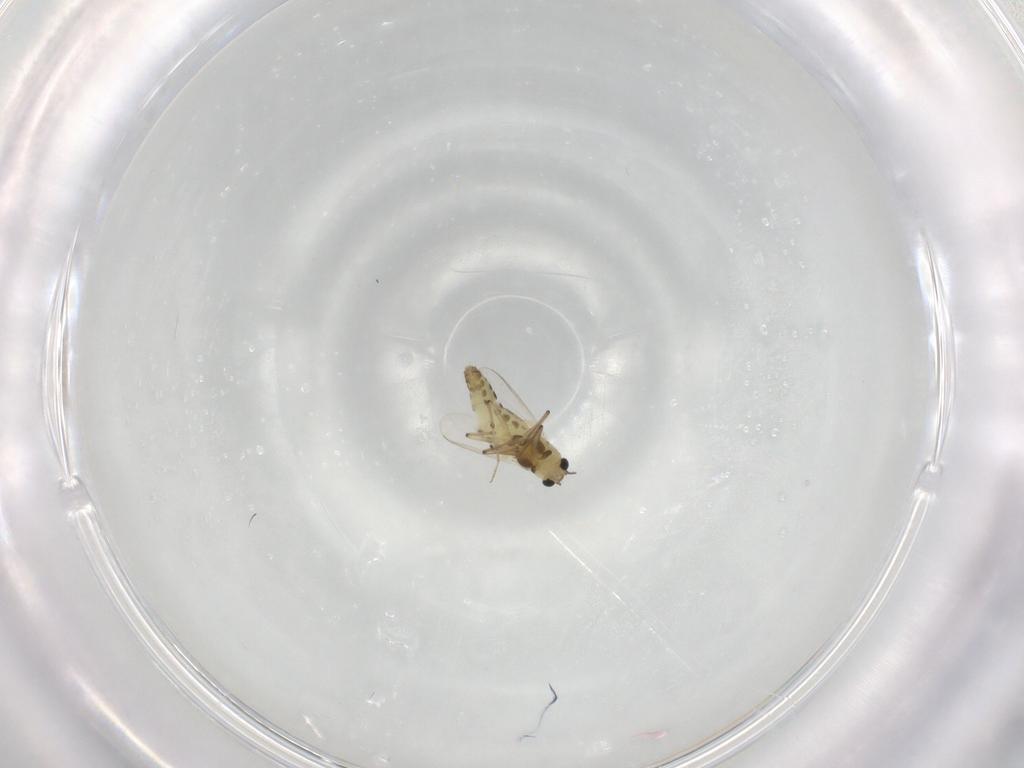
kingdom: Animalia
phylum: Arthropoda
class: Insecta
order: Diptera
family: Chironomidae
